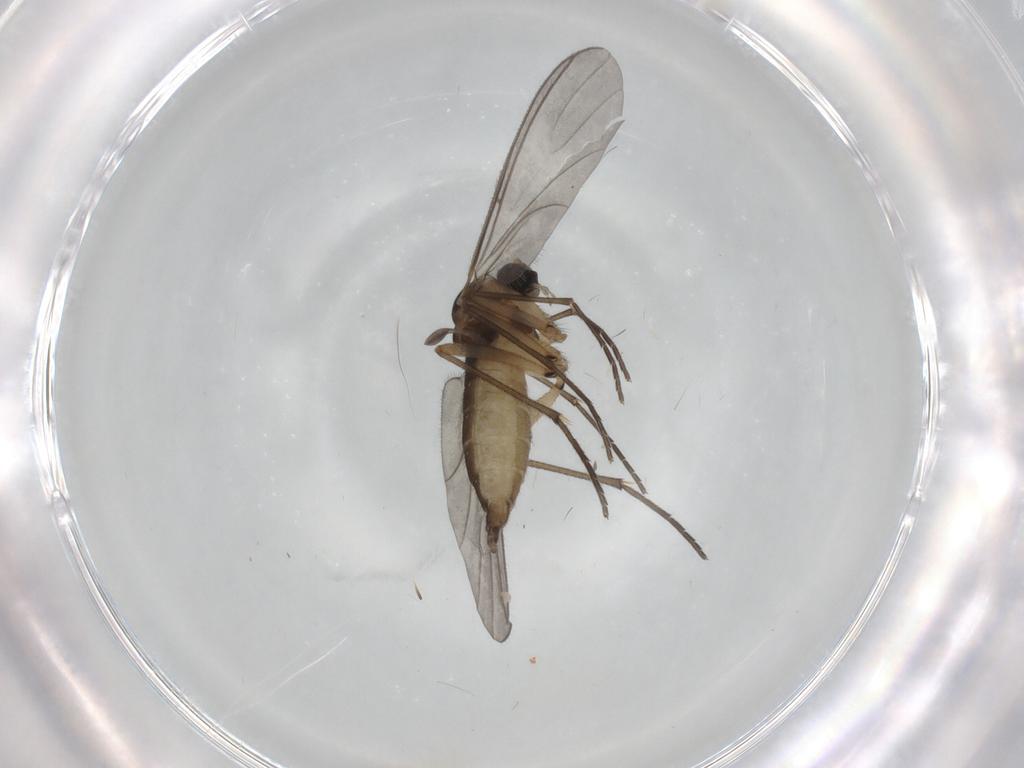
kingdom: Animalia
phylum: Arthropoda
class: Insecta
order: Diptera
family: Sciaridae
